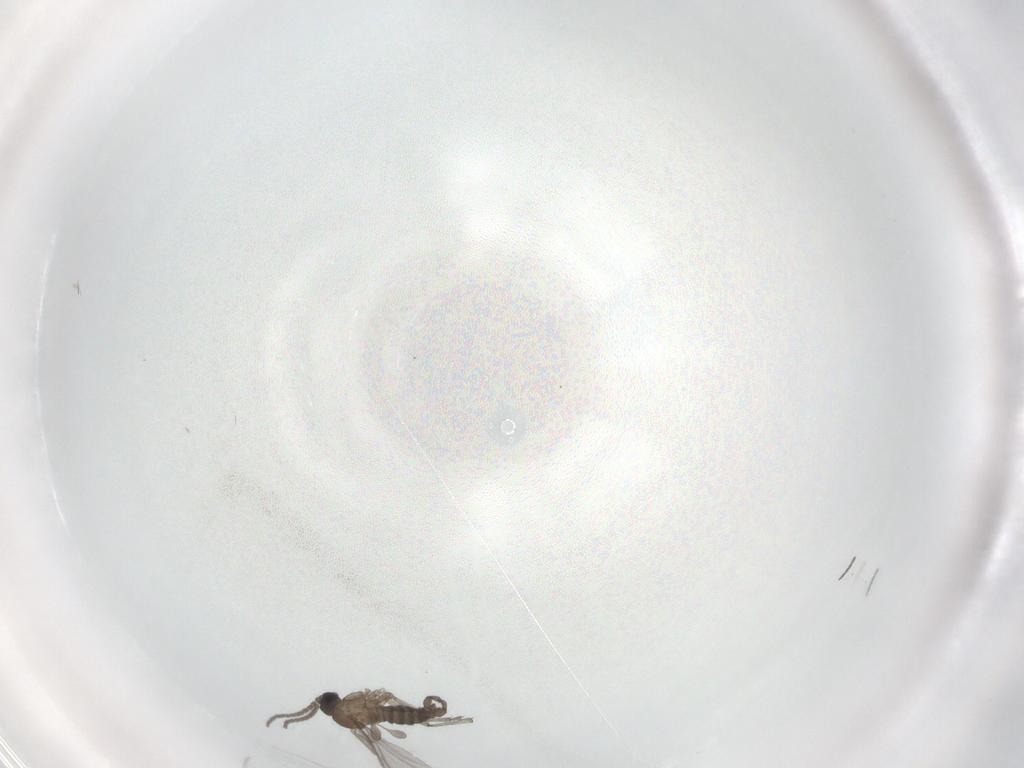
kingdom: Animalia
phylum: Arthropoda
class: Insecta
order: Diptera
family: Sciaridae
